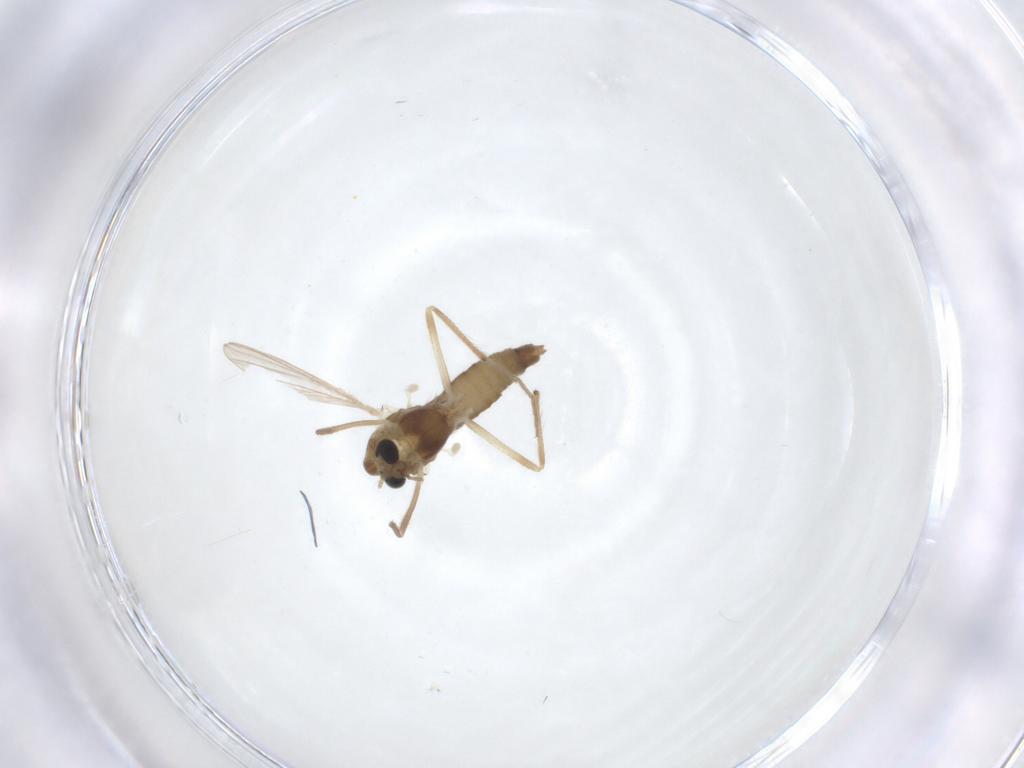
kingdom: Animalia
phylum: Arthropoda
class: Insecta
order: Diptera
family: Chironomidae
